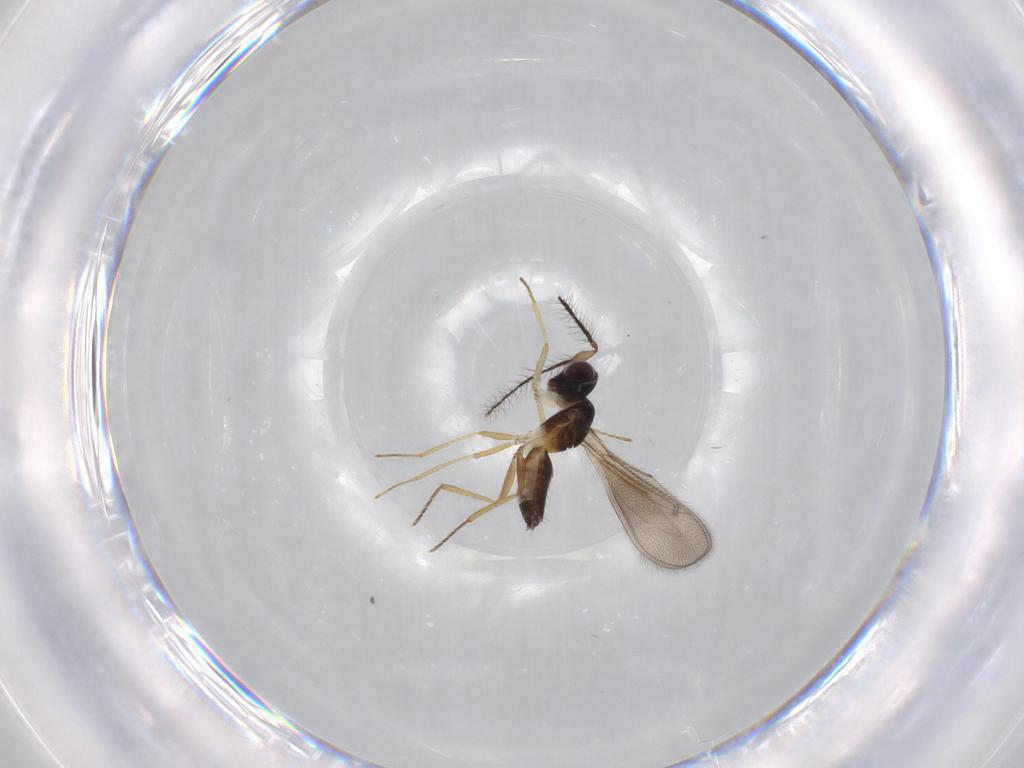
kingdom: Animalia
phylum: Arthropoda
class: Insecta
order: Hymenoptera
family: Eulophidae
